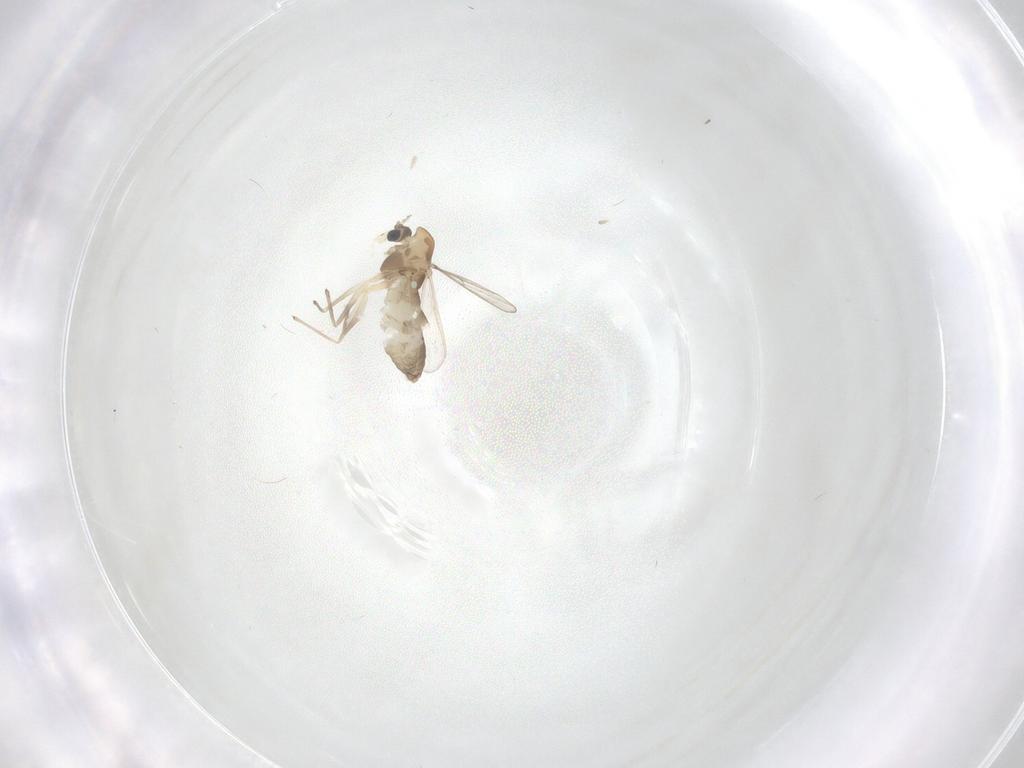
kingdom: Animalia
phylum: Arthropoda
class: Insecta
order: Diptera
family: Chironomidae
